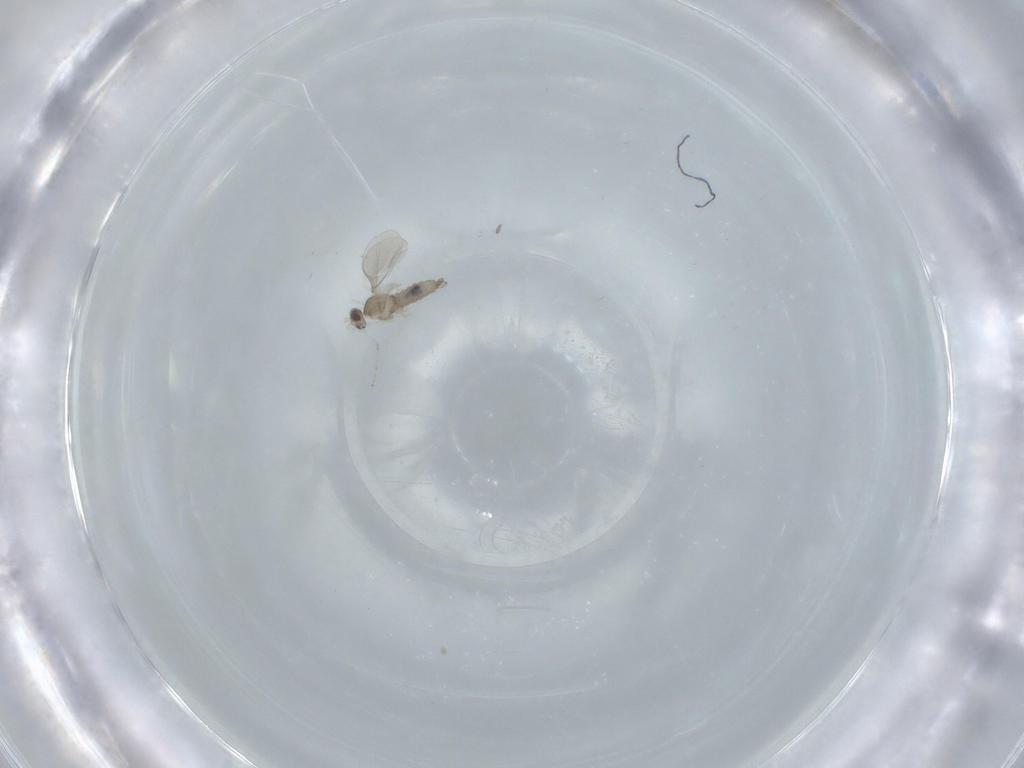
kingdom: Animalia
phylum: Arthropoda
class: Insecta
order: Diptera
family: Cecidomyiidae
